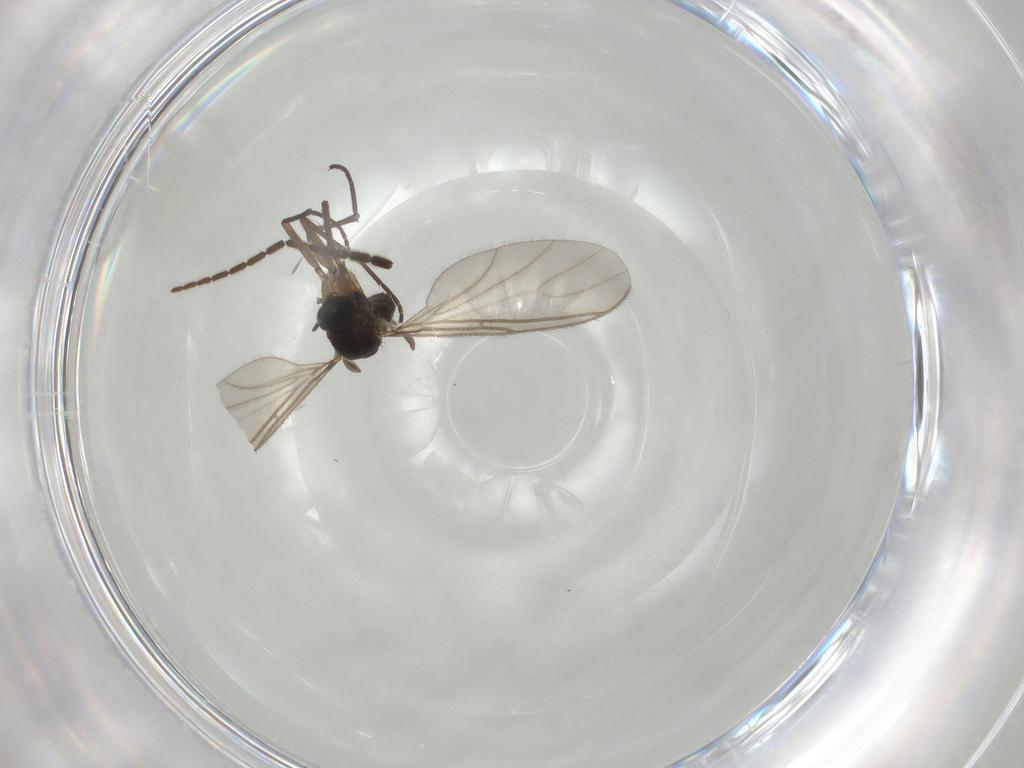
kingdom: Animalia
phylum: Arthropoda
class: Insecta
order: Diptera
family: Sciaridae
